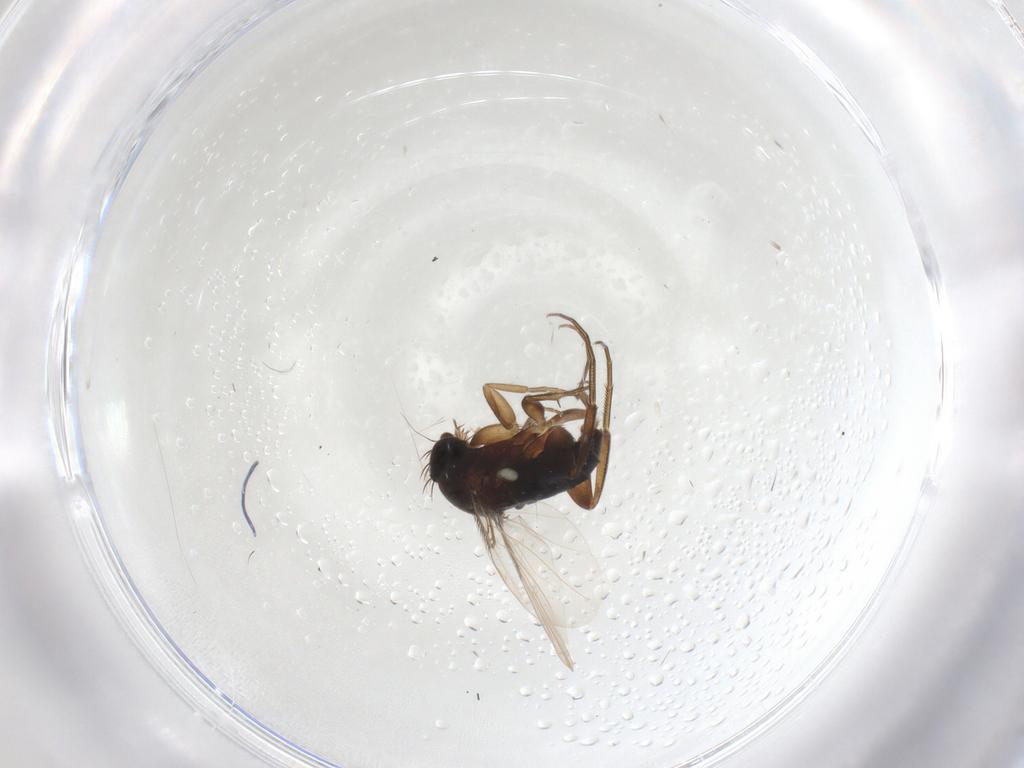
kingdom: Animalia
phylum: Arthropoda
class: Insecta
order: Diptera
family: Phoridae
